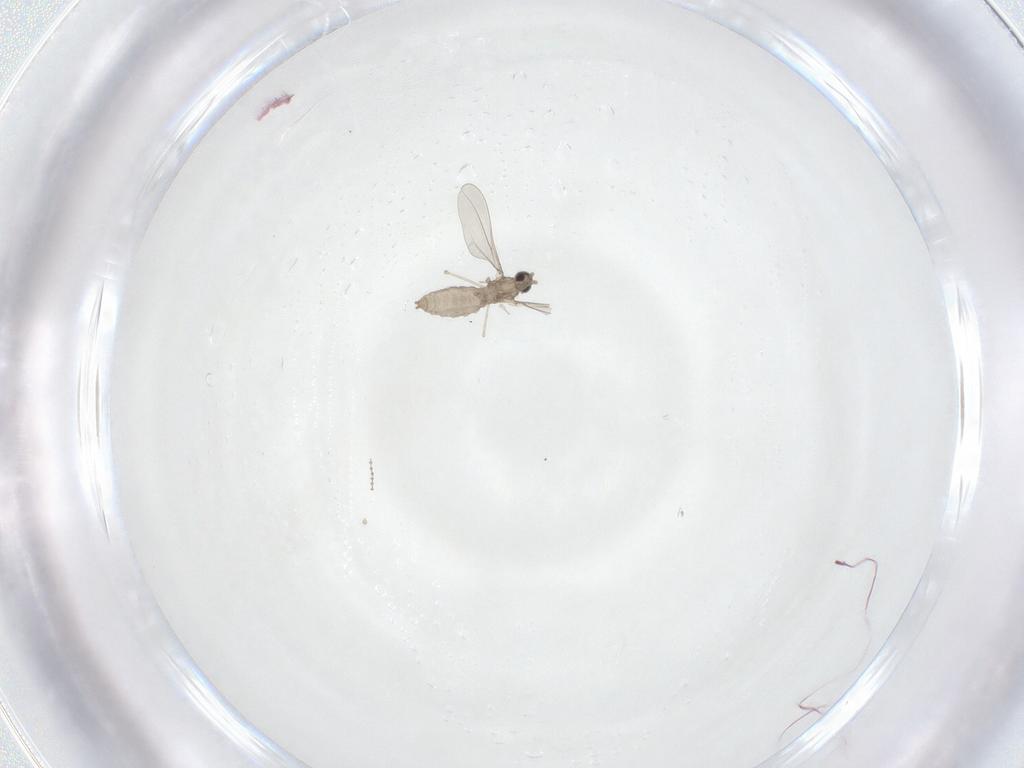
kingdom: Animalia
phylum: Arthropoda
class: Insecta
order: Diptera
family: Cecidomyiidae
